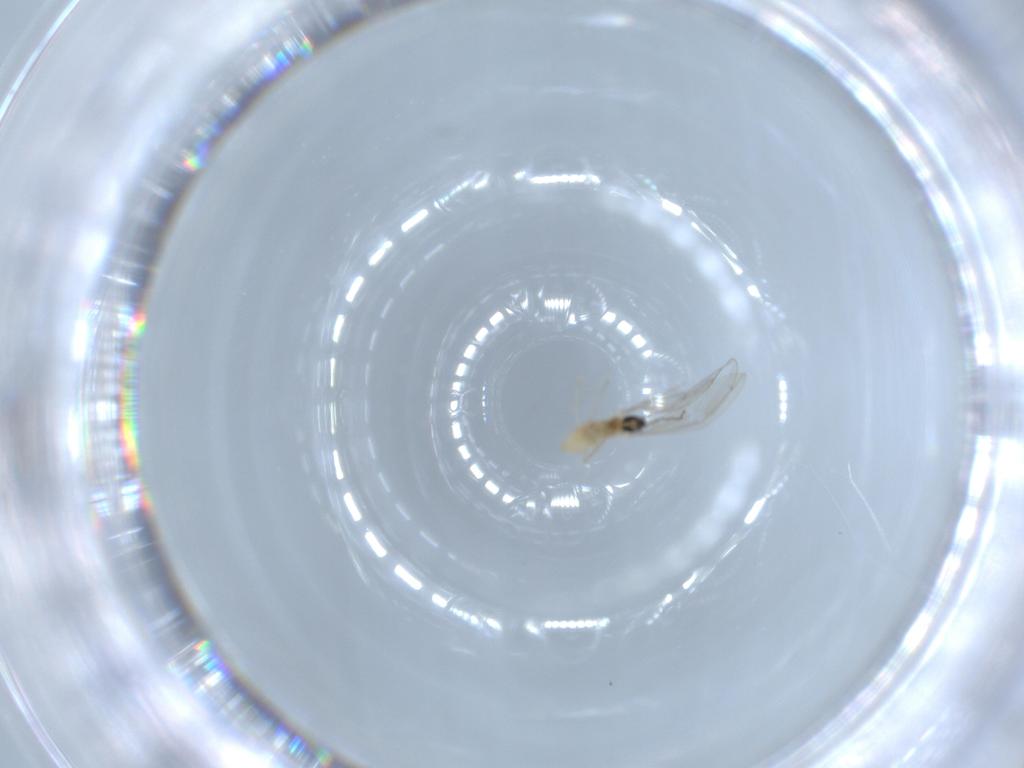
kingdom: Animalia
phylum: Arthropoda
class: Insecta
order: Diptera
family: Cecidomyiidae
